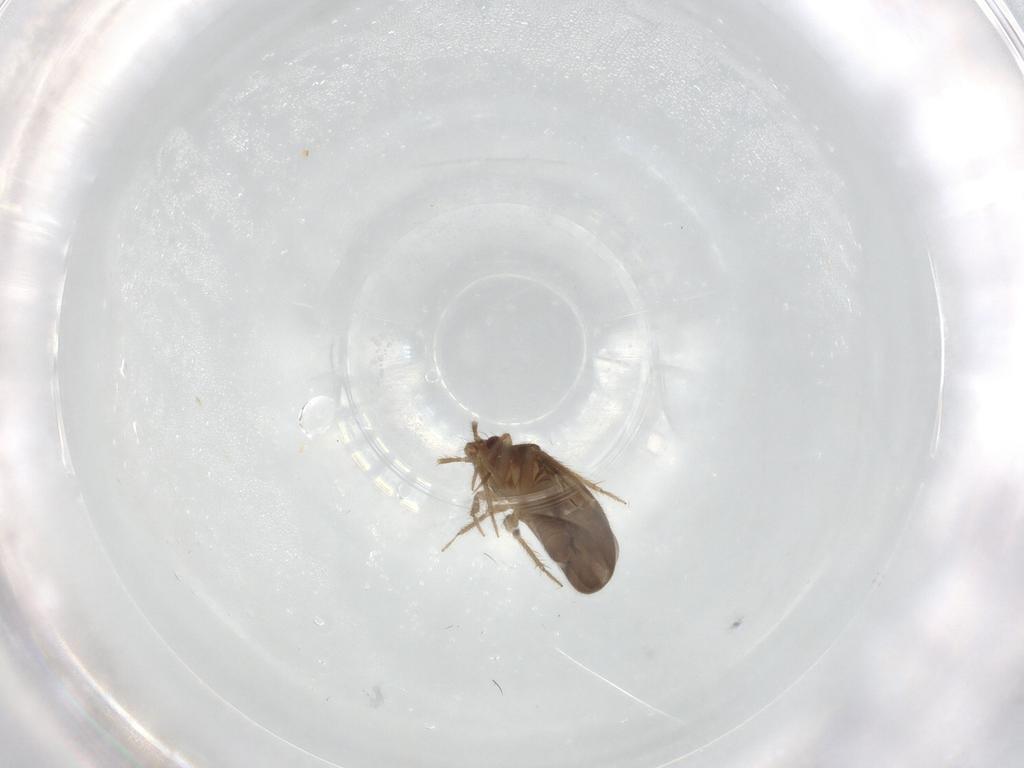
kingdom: Animalia
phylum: Arthropoda
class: Insecta
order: Hemiptera
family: Ceratocombidae
